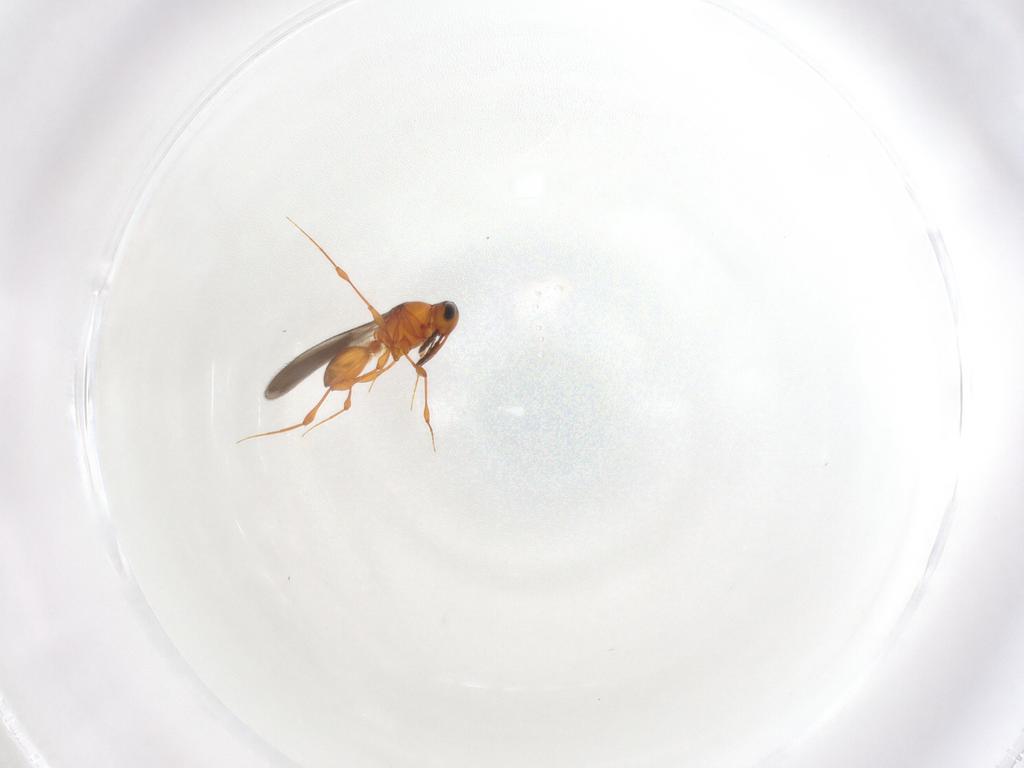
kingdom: Animalia
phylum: Arthropoda
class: Insecta
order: Hymenoptera
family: Platygastridae
